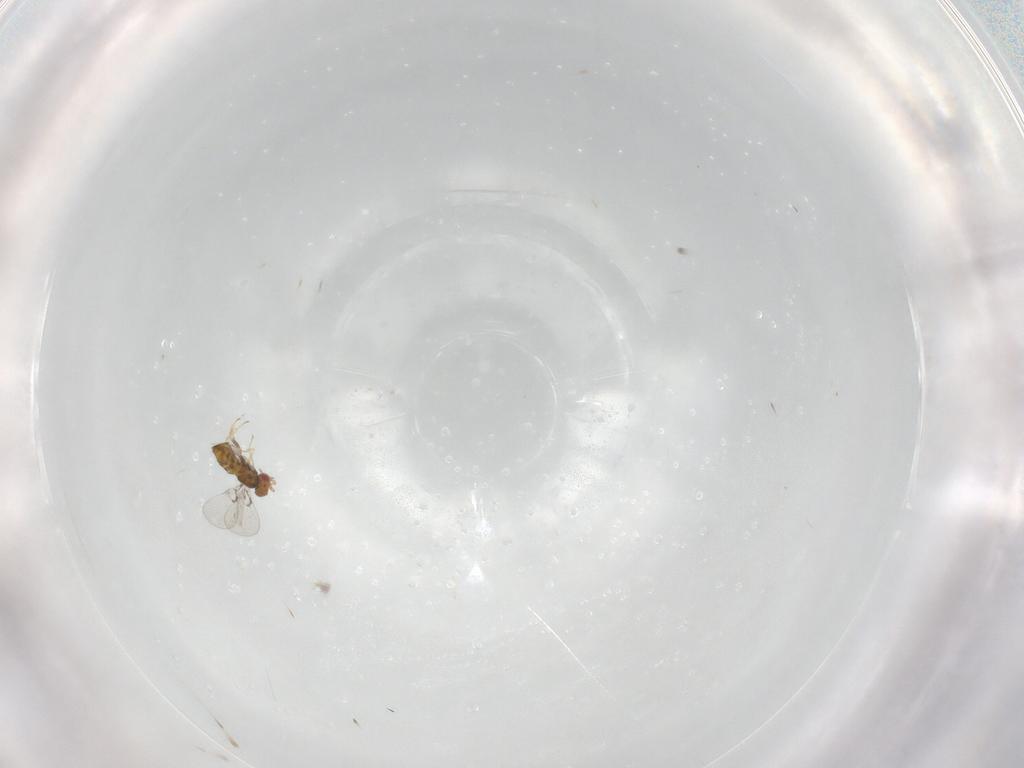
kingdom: Animalia
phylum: Arthropoda
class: Insecta
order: Hymenoptera
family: Trichogrammatidae
